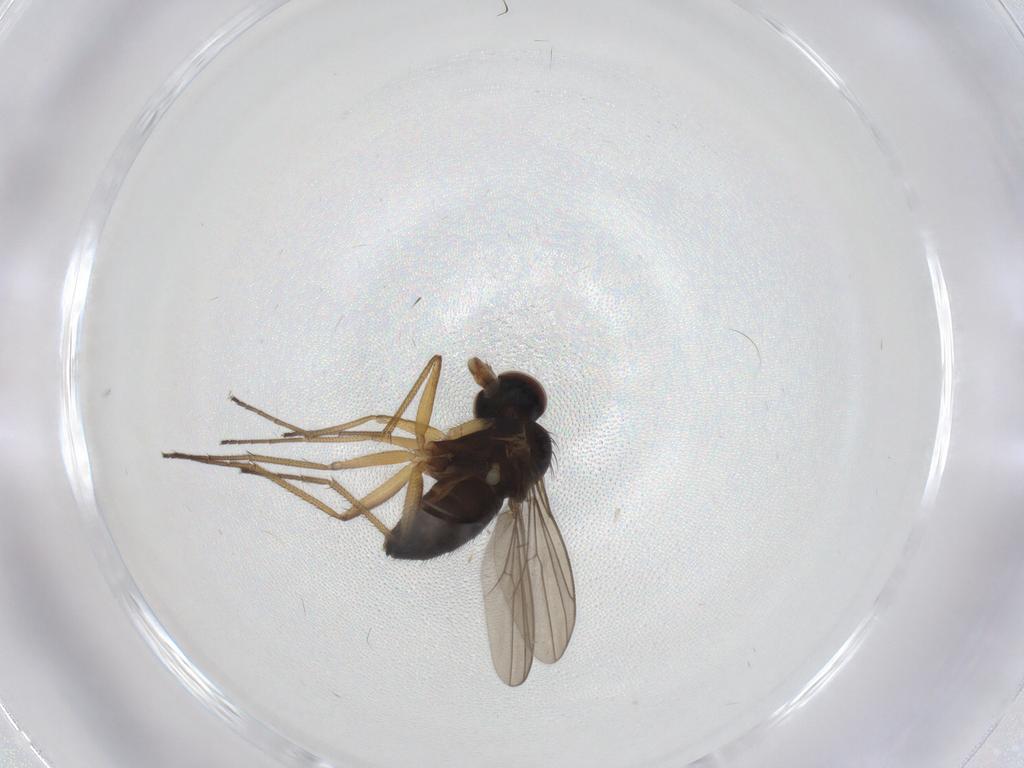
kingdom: Animalia
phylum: Arthropoda
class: Insecta
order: Diptera
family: Dolichopodidae
